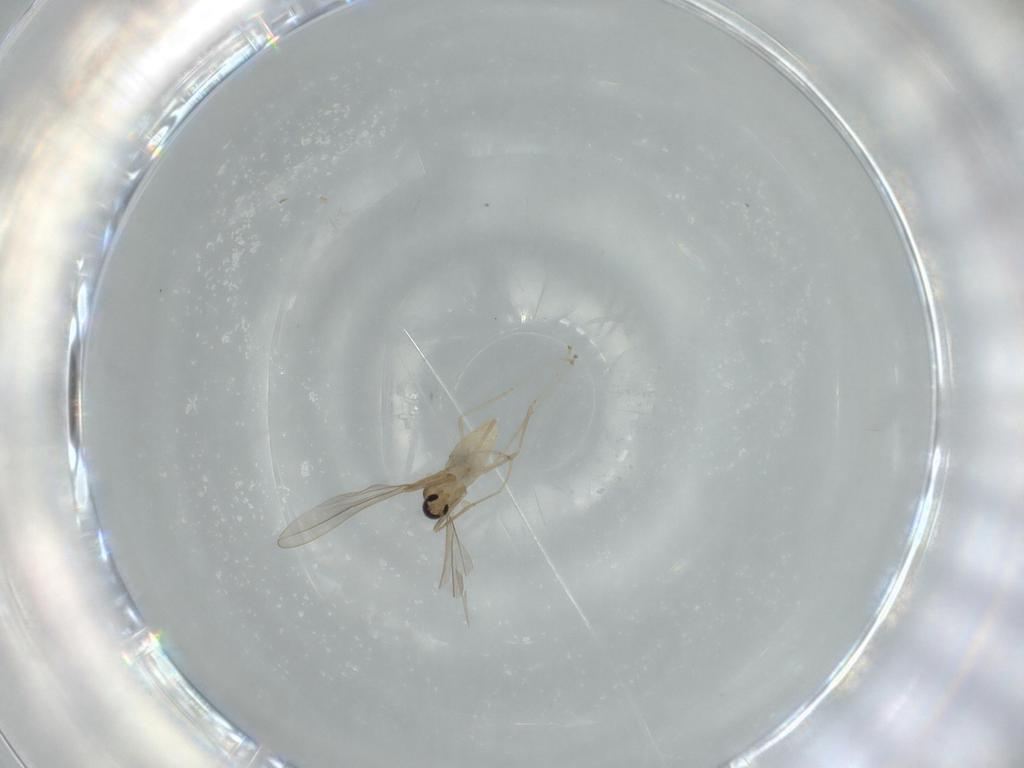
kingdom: Animalia
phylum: Arthropoda
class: Insecta
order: Diptera
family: Cecidomyiidae
